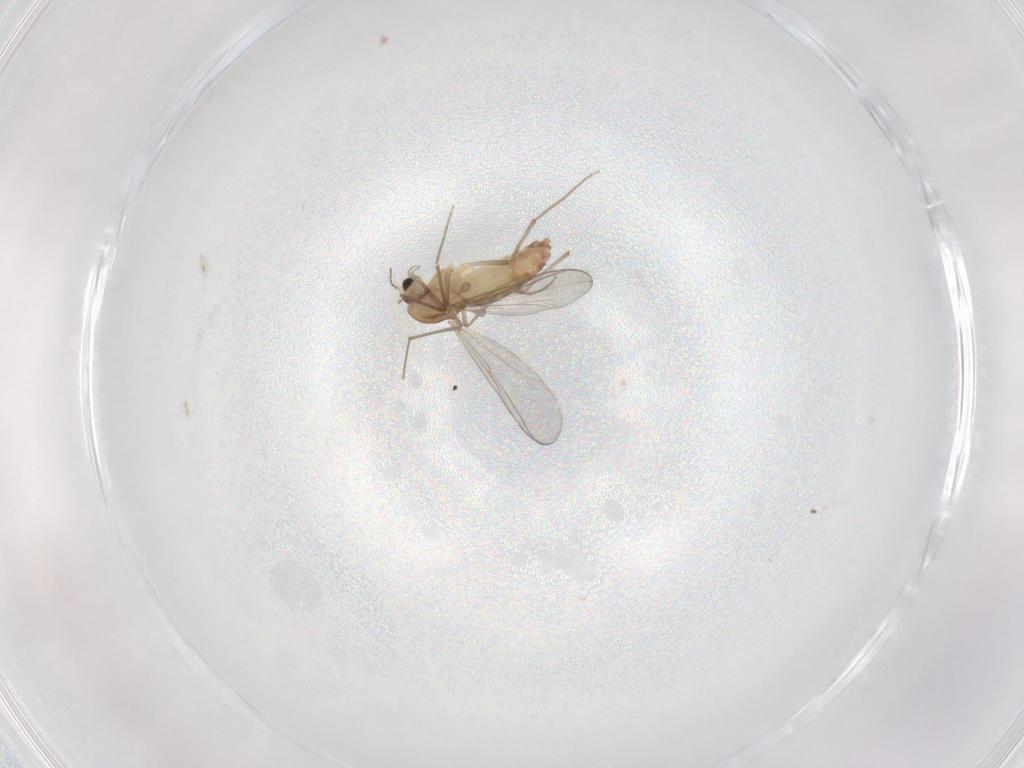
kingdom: Animalia
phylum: Arthropoda
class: Insecta
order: Diptera
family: Chironomidae
